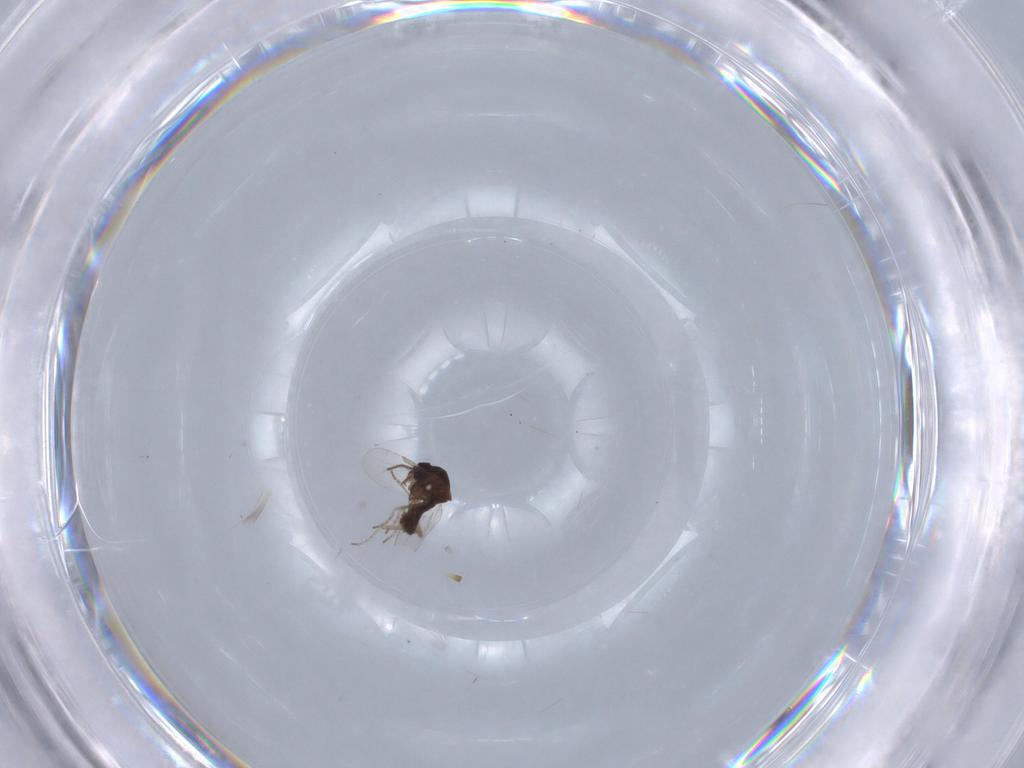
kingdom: Animalia
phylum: Arthropoda
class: Insecta
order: Diptera
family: Ceratopogonidae
